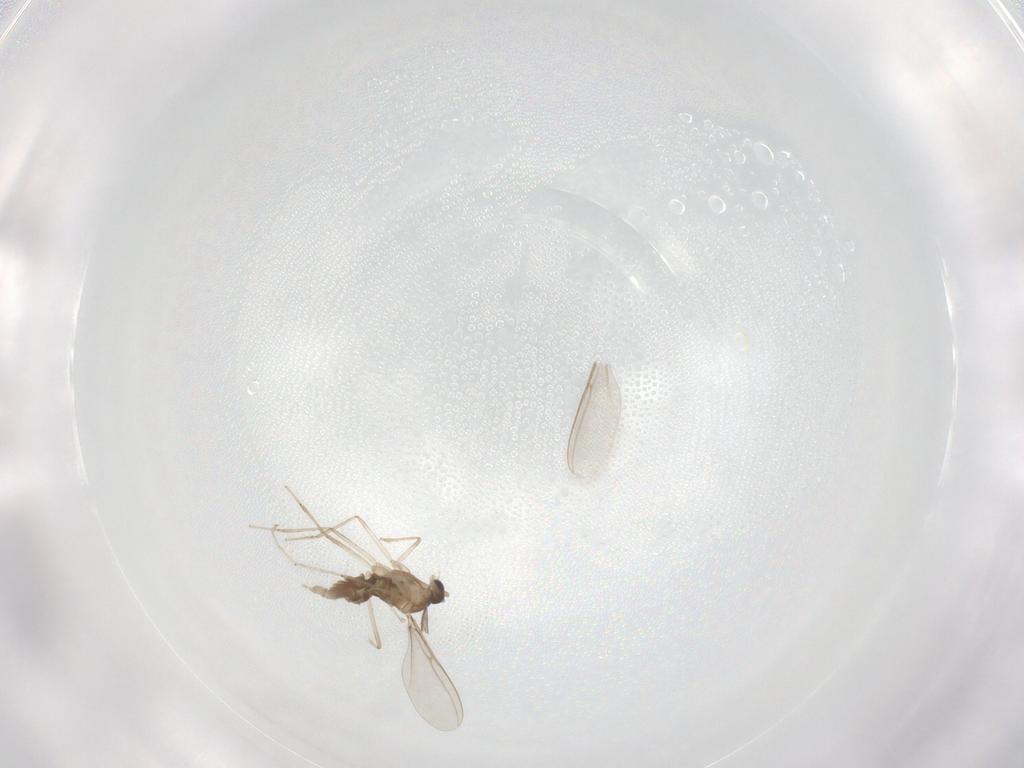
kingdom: Animalia
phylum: Arthropoda
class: Insecta
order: Diptera
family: Cecidomyiidae
